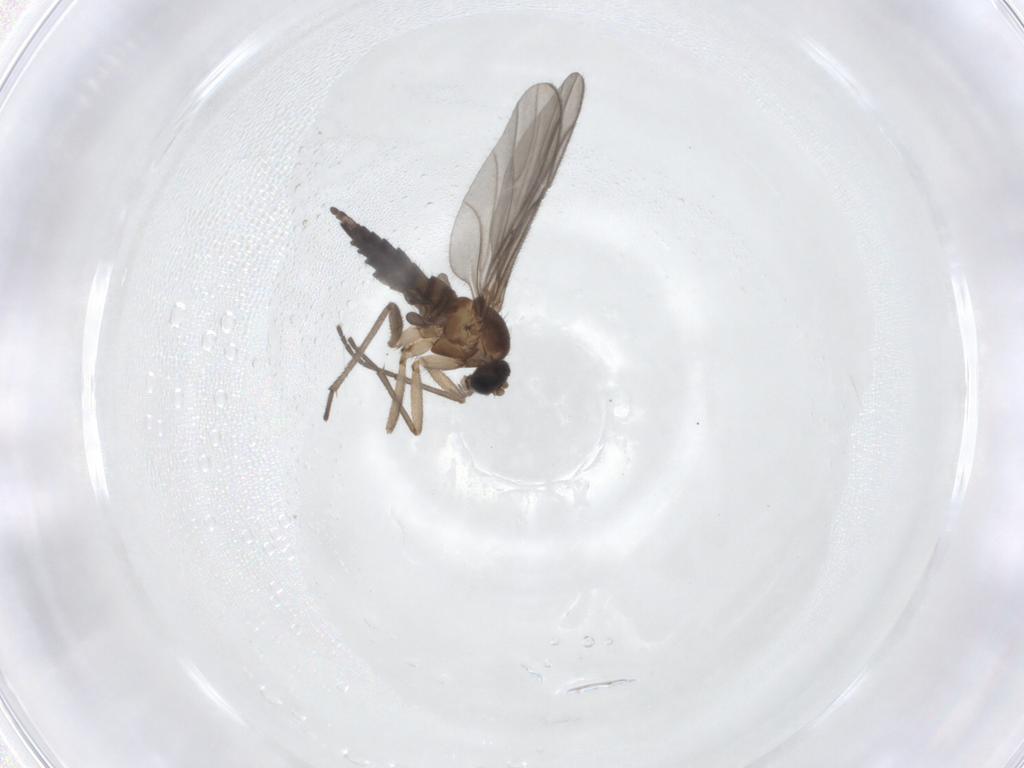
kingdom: Animalia
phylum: Arthropoda
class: Insecta
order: Diptera
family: Sciaridae
